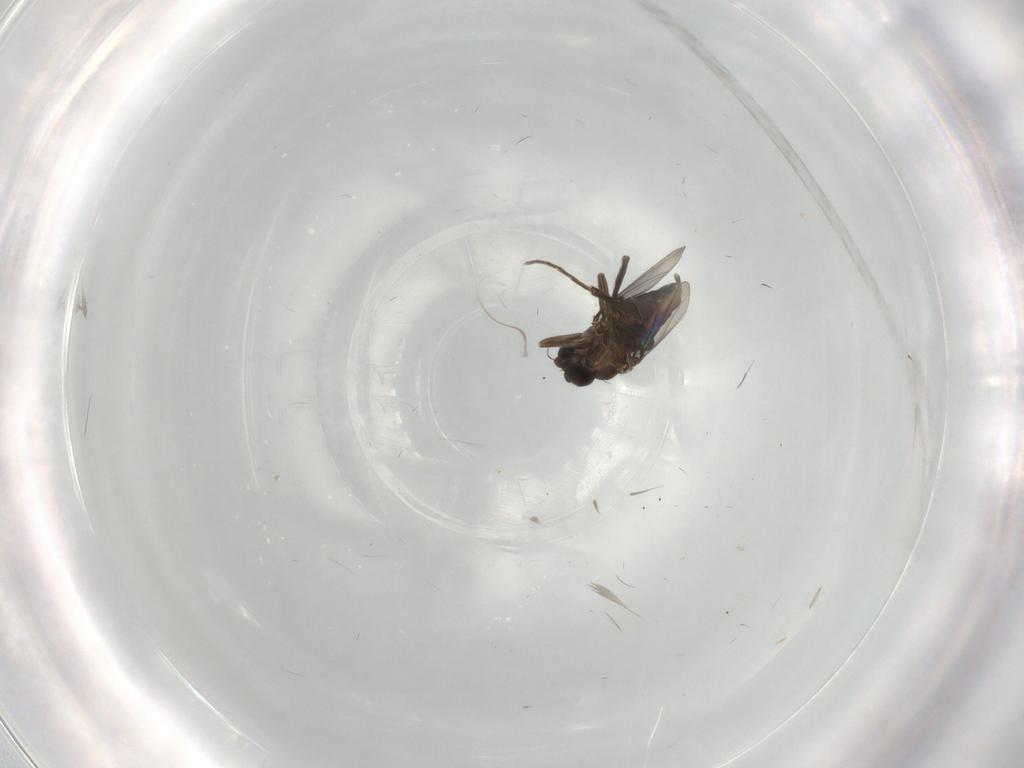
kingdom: Animalia
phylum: Arthropoda
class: Insecta
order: Diptera
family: Phoridae
